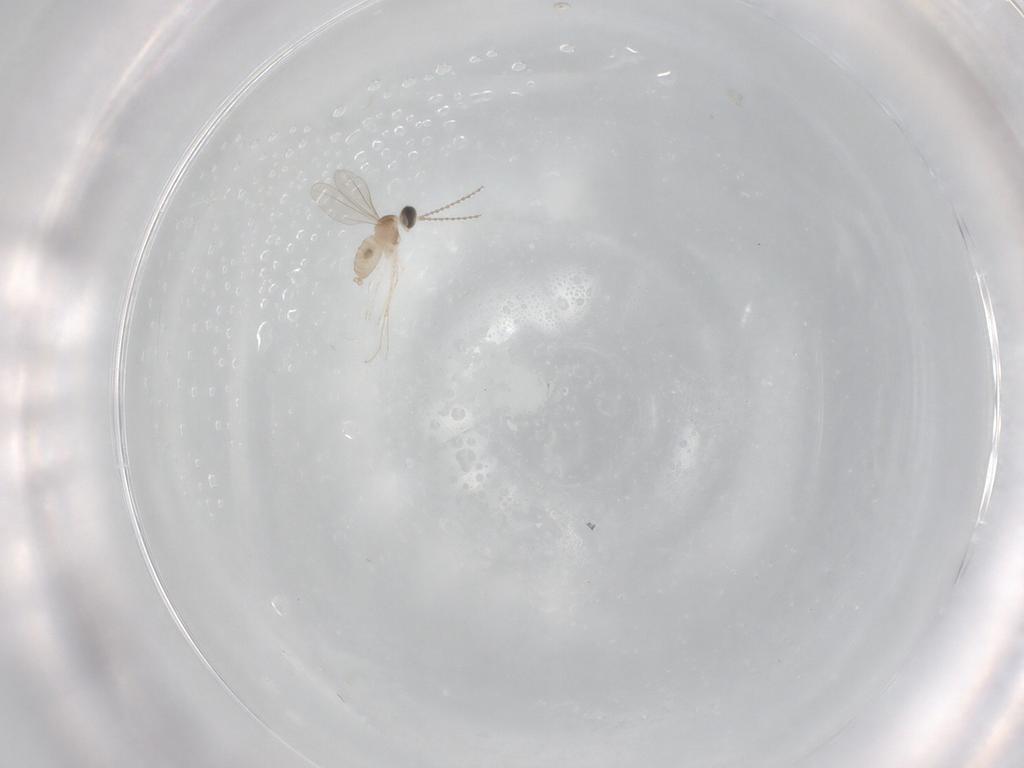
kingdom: Animalia
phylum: Arthropoda
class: Insecta
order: Diptera
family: Cecidomyiidae
